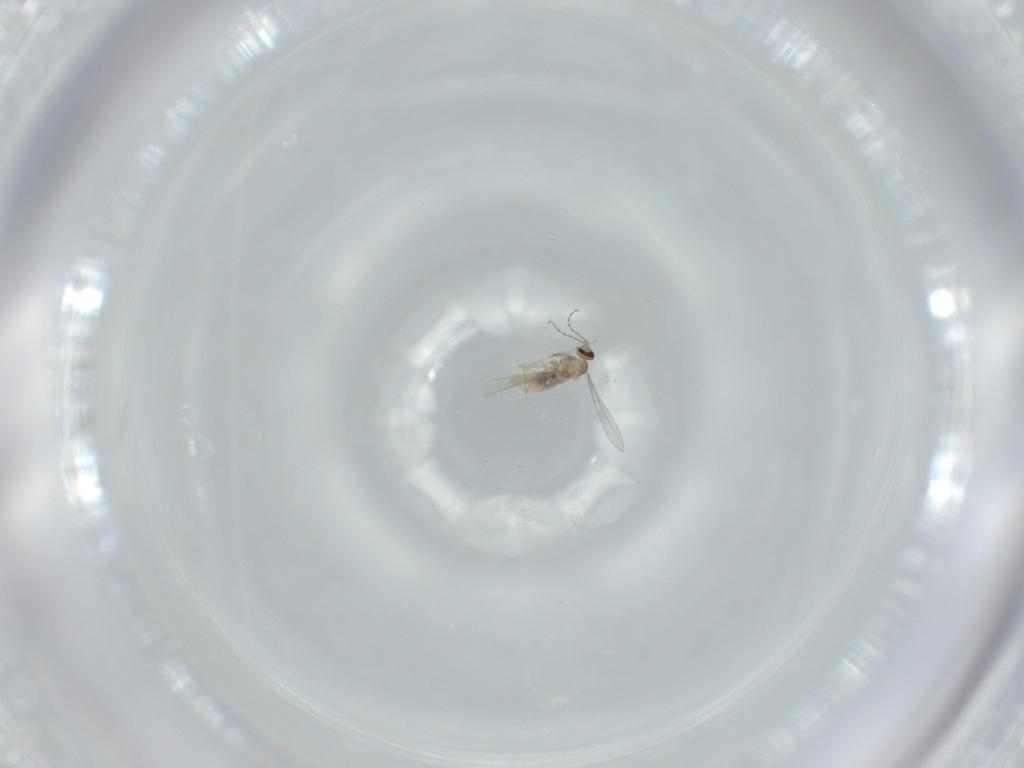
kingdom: Animalia
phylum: Arthropoda
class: Insecta
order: Diptera
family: Cecidomyiidae
